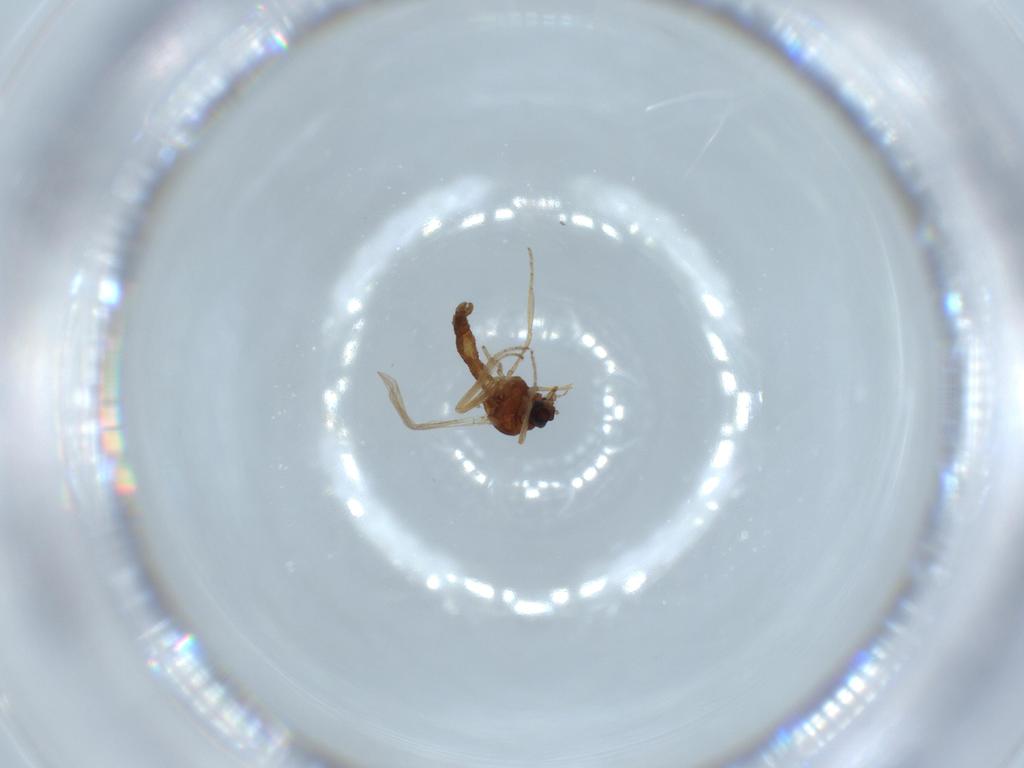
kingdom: Animalia
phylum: Arthropoda
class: Insecta
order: Diptera
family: Ceratopogonidae
